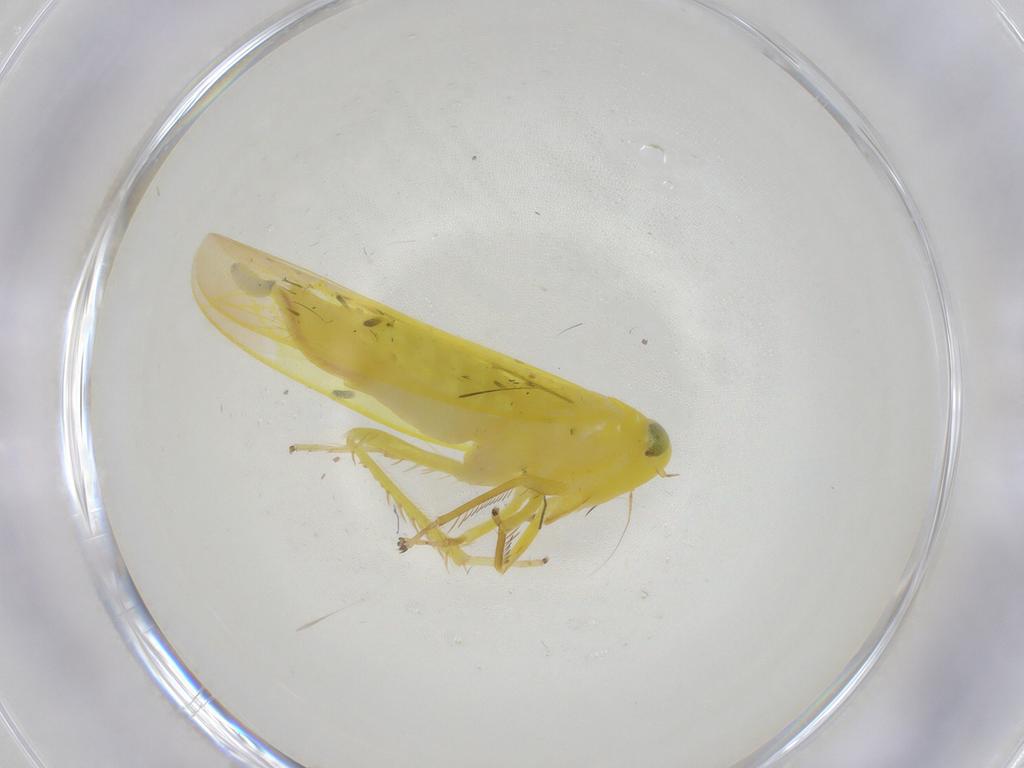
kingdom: Animalia
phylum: Arthropoda
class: Insecta
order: Hemiptera
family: Cicadellidae
